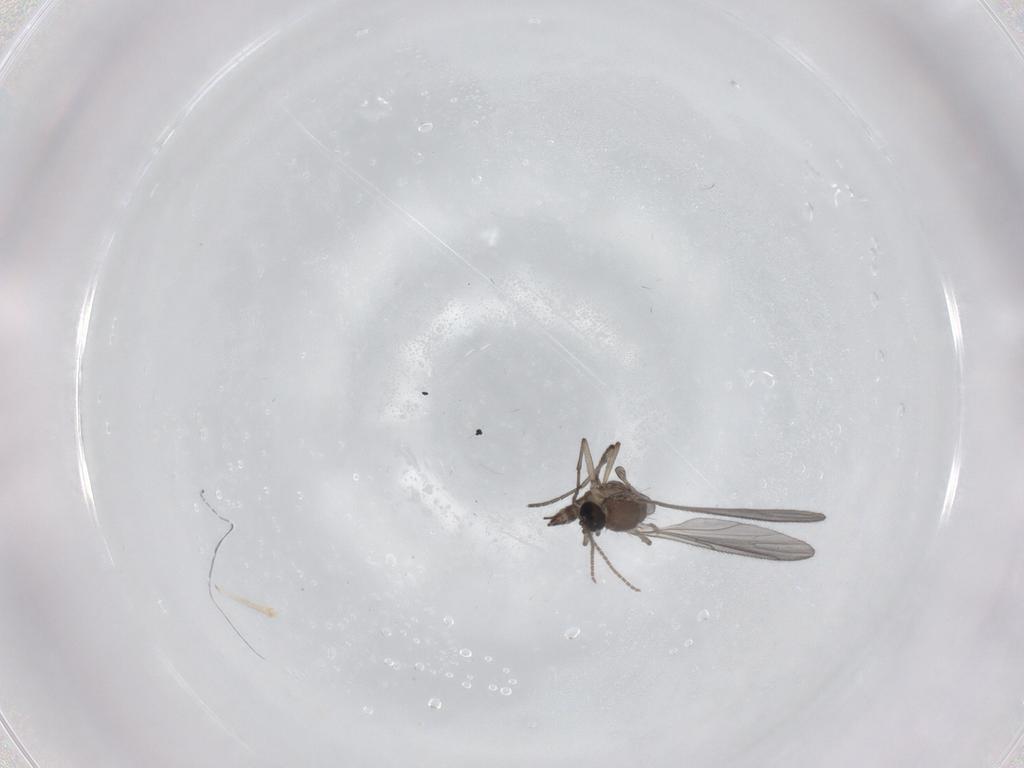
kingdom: Animalia
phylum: Arthropoda
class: Insecta
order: Diptera
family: Sciaridae
